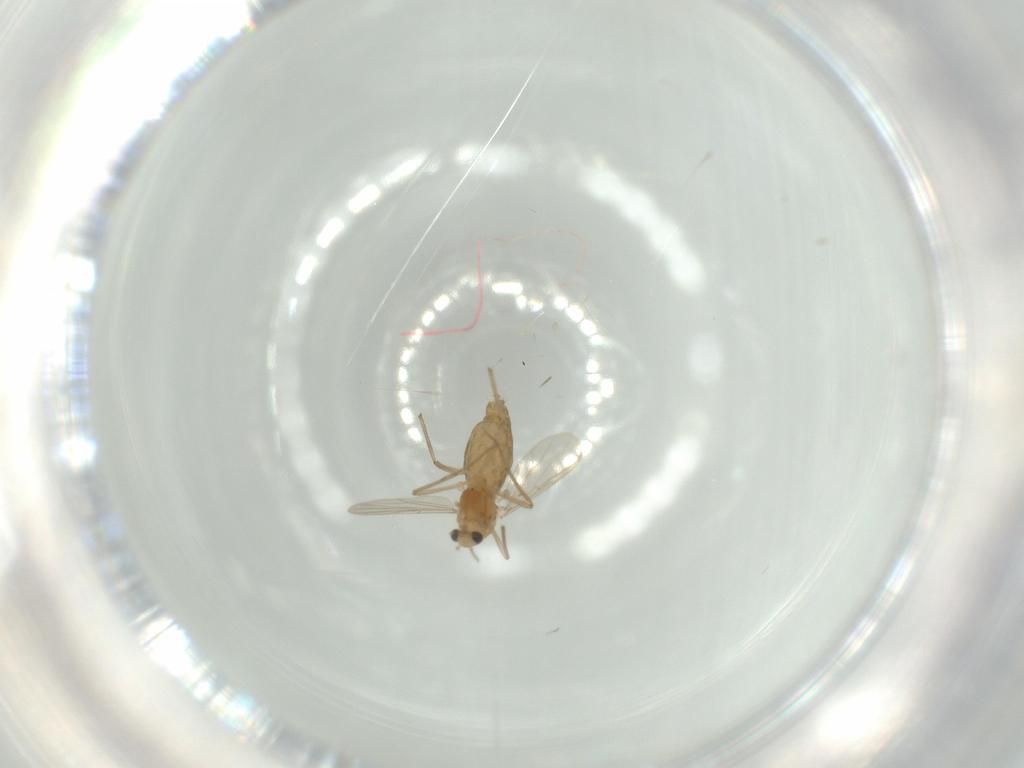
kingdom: Animalia
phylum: Arthropoda
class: Insecta
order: Diptera
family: Chironomidae
